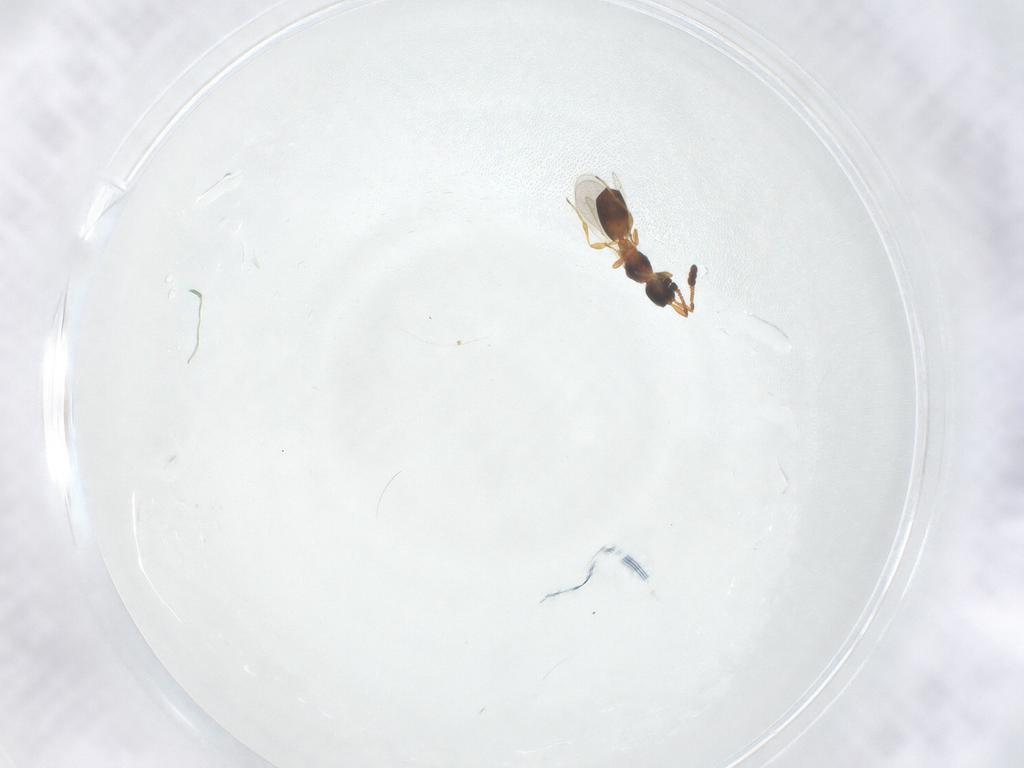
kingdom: Animalia
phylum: Arthropoda
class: Insecta
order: Hymenoptera
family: Diapriidae
